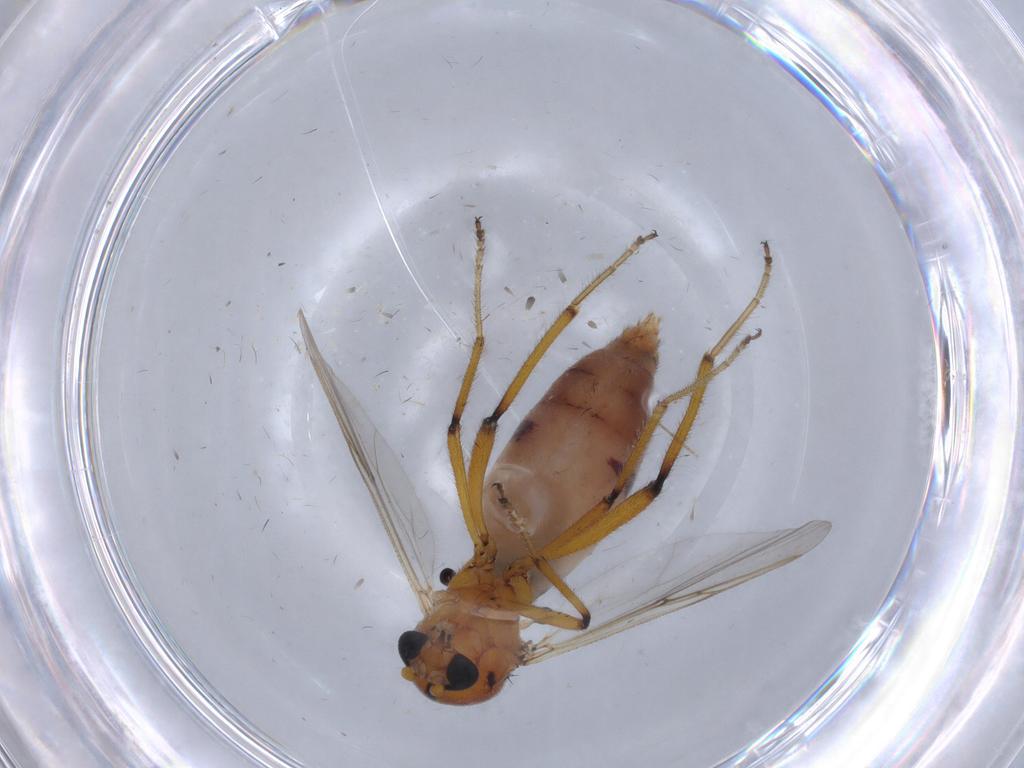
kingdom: Animalia
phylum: Arthropoda
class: Insecta
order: Diptera
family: Ceratopogonidae
